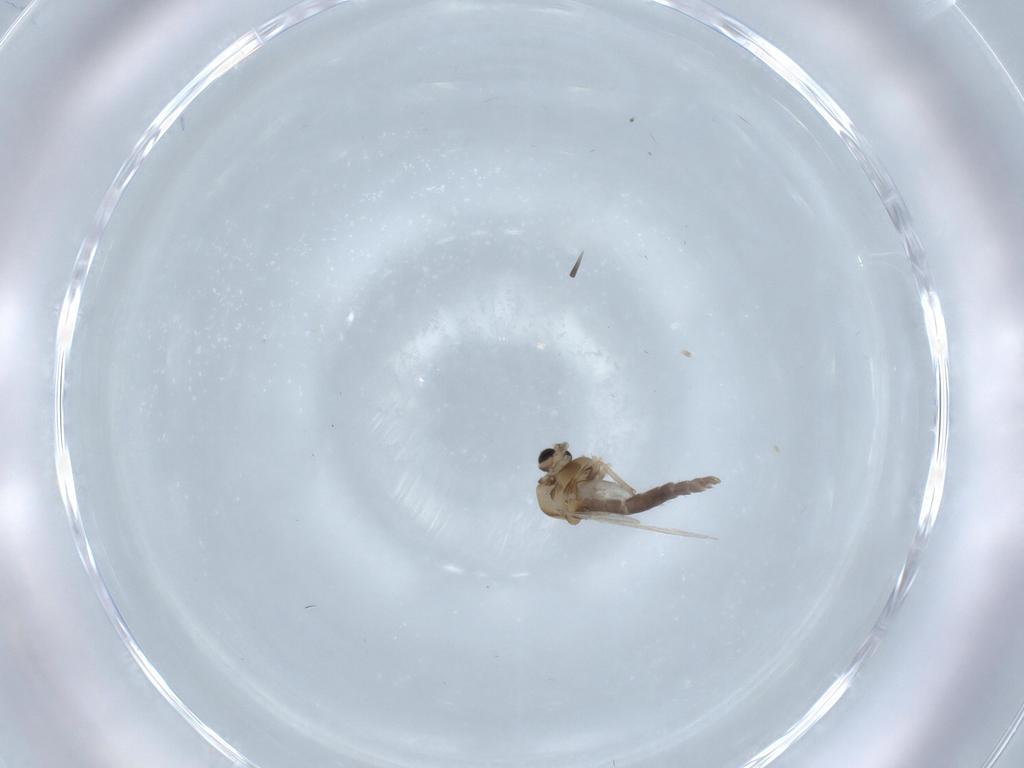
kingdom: Animalia
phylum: Arthropoda
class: Insecta
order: Diptera
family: Chironomidae
